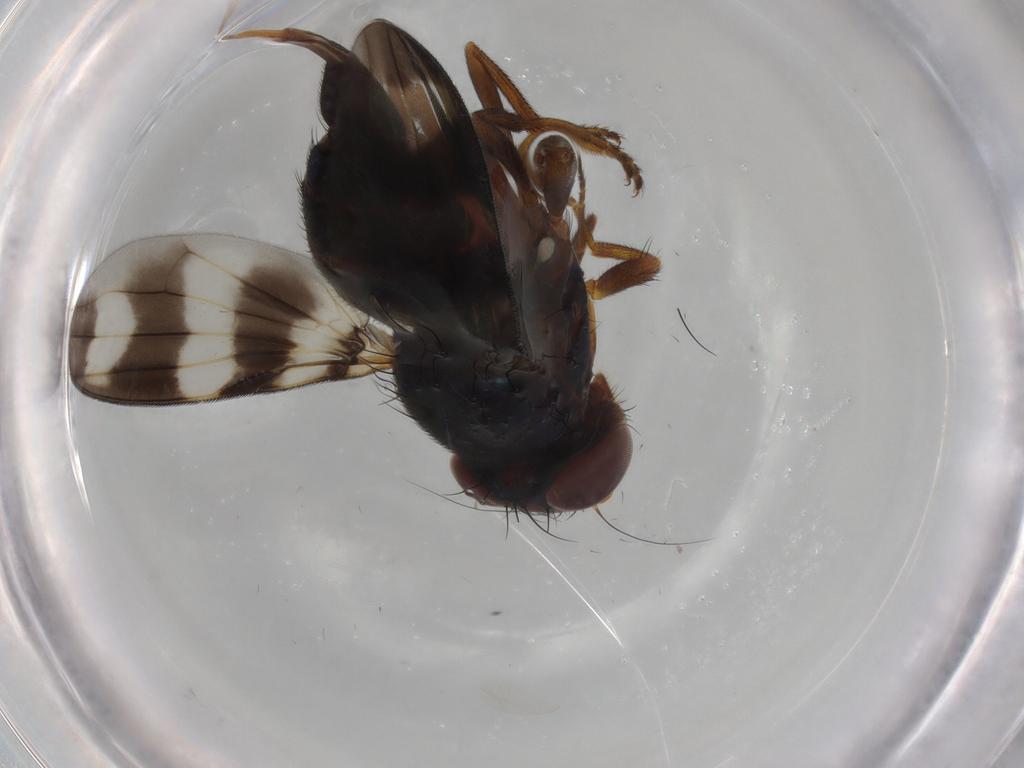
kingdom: Animalia
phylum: Arthropoda
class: Insecta
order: Diptera
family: Ulidiidae
